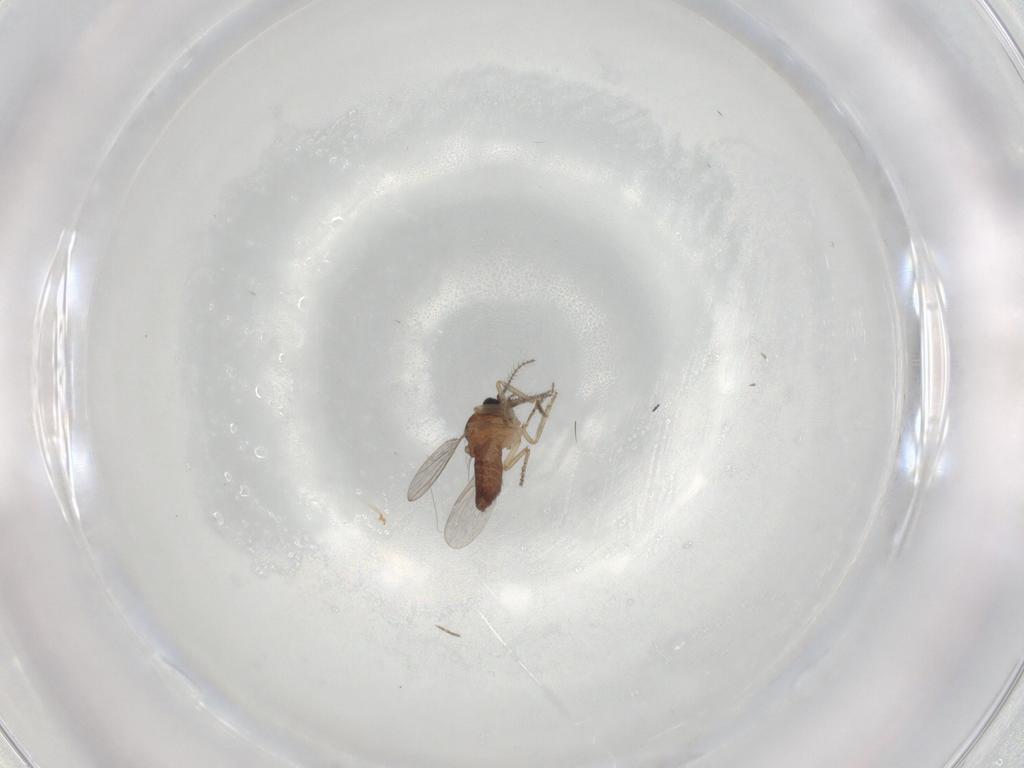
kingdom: Animalia
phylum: Arthropoda
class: Insecta
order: Diptera
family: Ceratopogonidae
